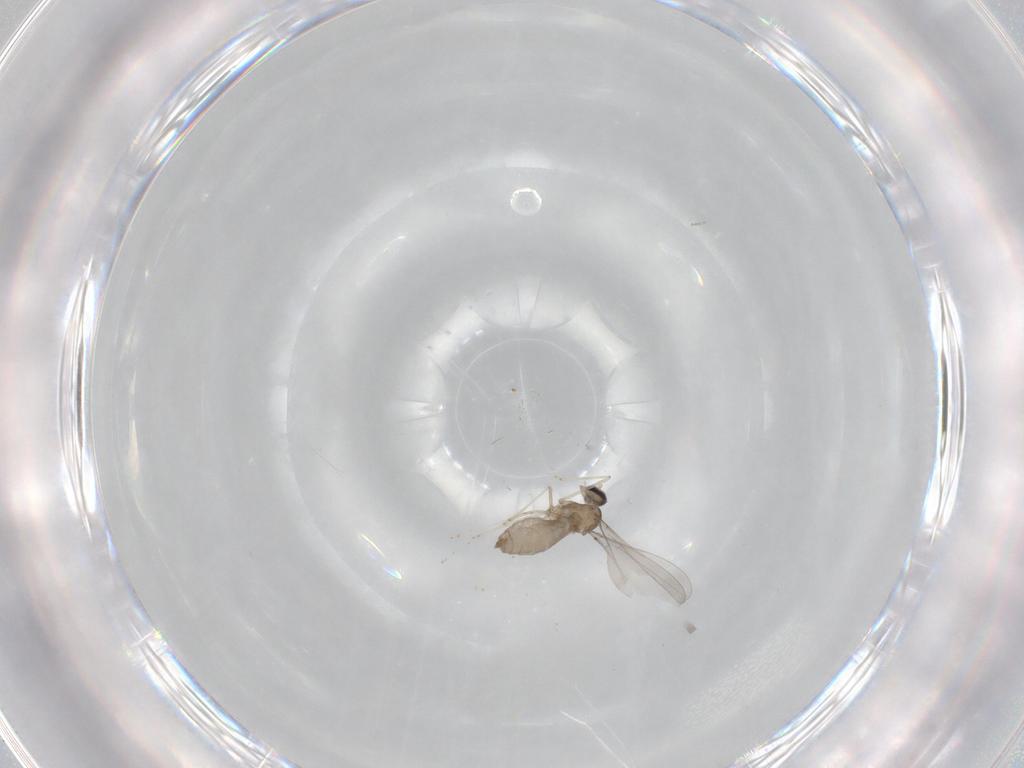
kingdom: Animalia
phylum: Arthropoda
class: Insecta
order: Diptera
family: Cecidomyiidae
